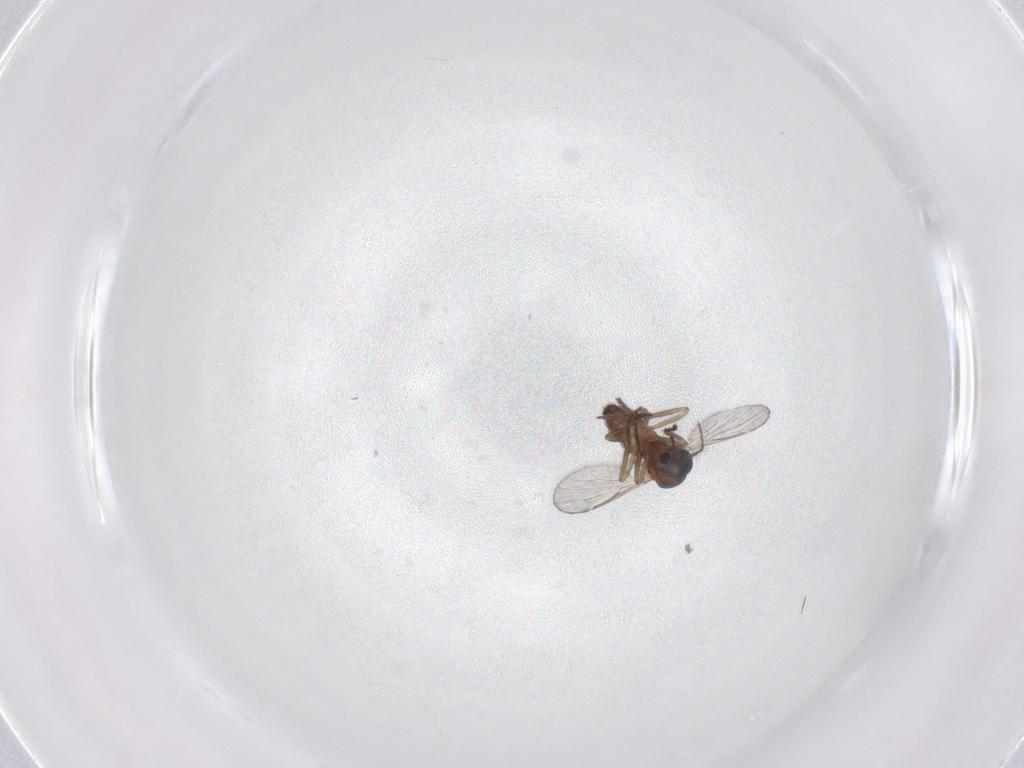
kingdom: Animalia
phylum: Arthropoda
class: Insecta
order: Diptera
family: Ceratopogonidae
